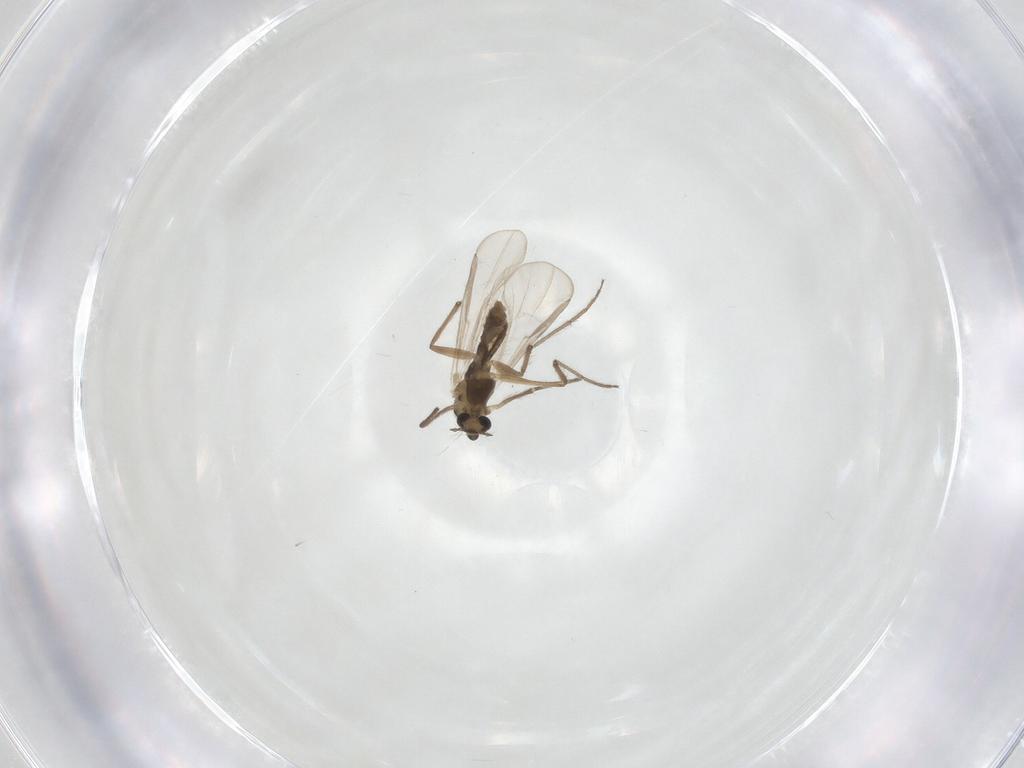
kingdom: Animalia
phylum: Arthropoda
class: Insecta
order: Diptera
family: Chironomidae
